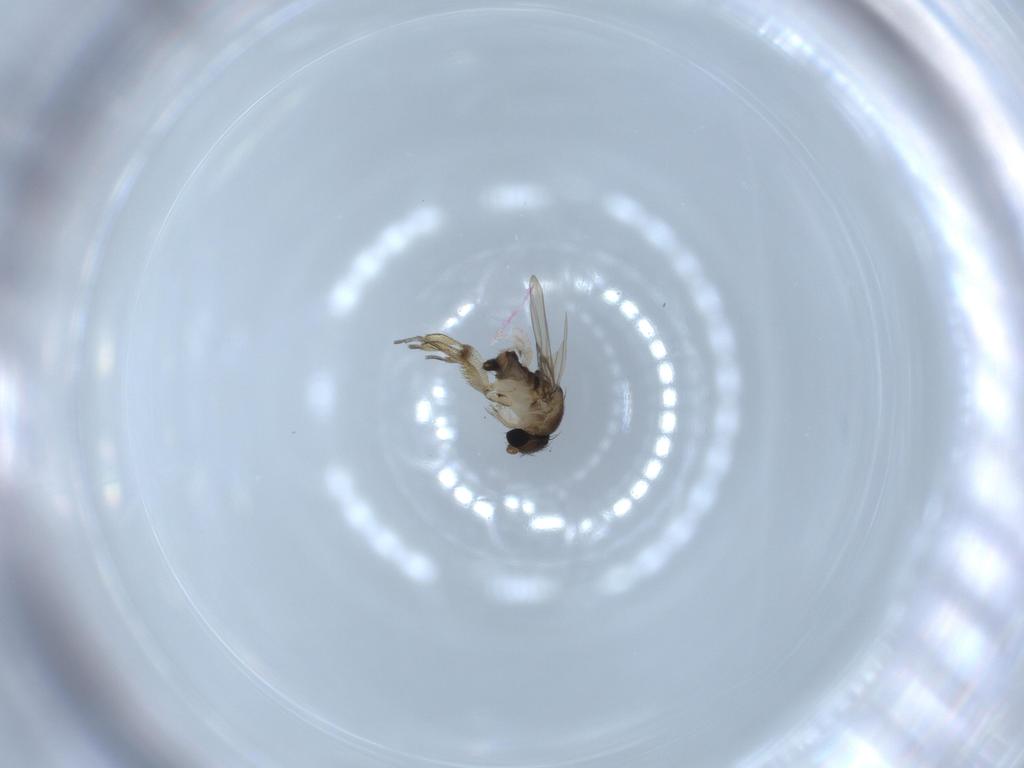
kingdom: Animalia
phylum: Arthropoda
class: Insecta
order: Diptera
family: Phoridae
